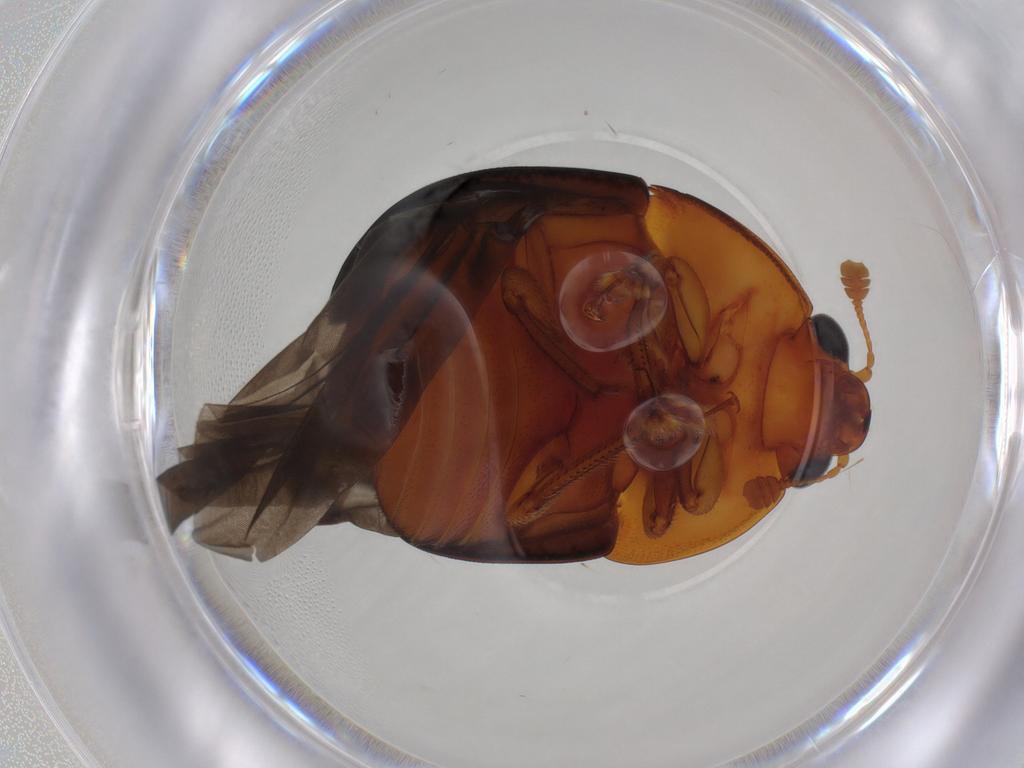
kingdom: Animalia
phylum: Arthropoda
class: Insecta
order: Coleoptera
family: Nitidulidae
